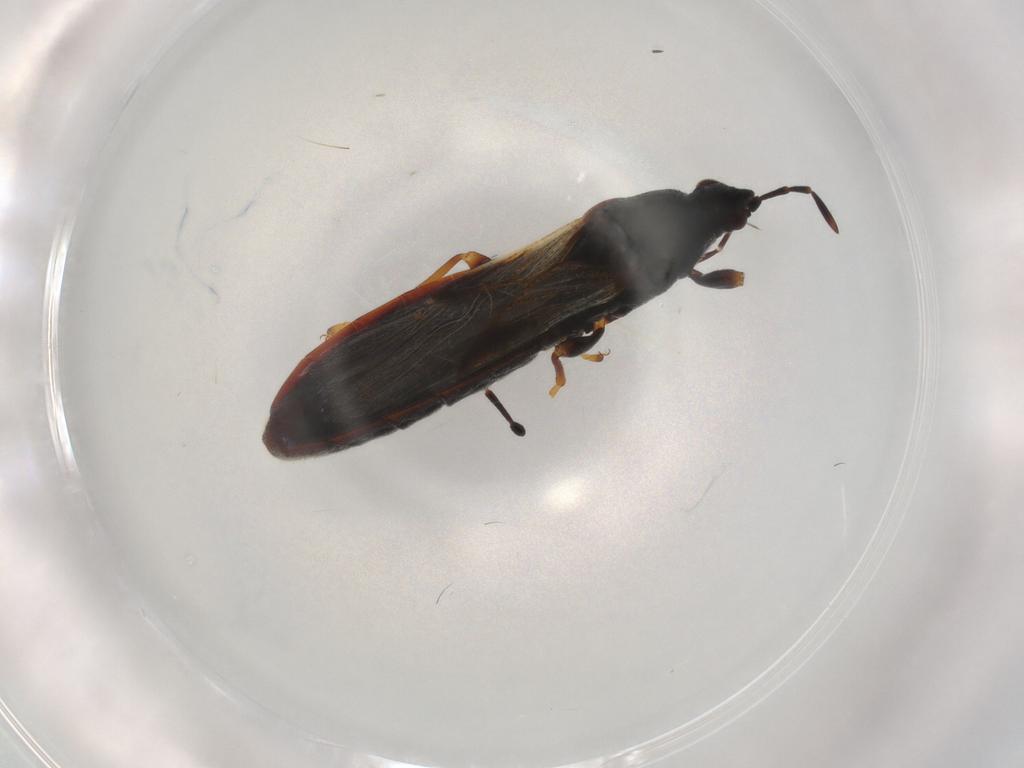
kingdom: Animalia
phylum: Arthropoda
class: Insecta
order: Hemiptera
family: Blissidae
